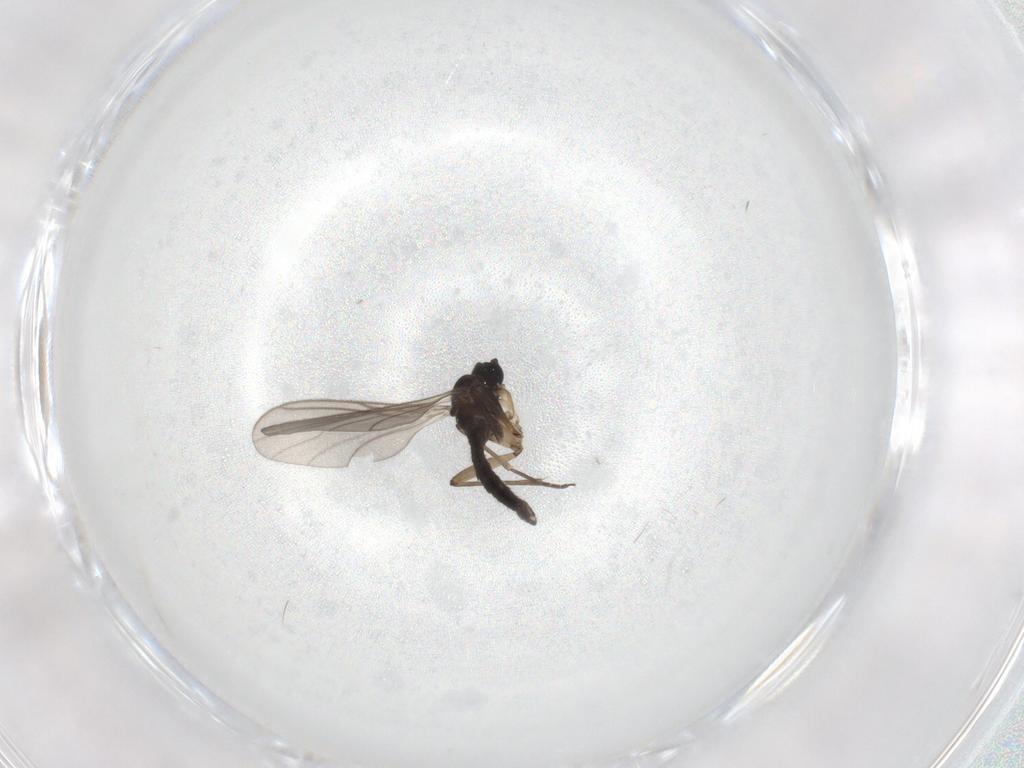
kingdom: Animalia
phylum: Arthropoda
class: Insecta
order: Diptera
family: Sciaridae
